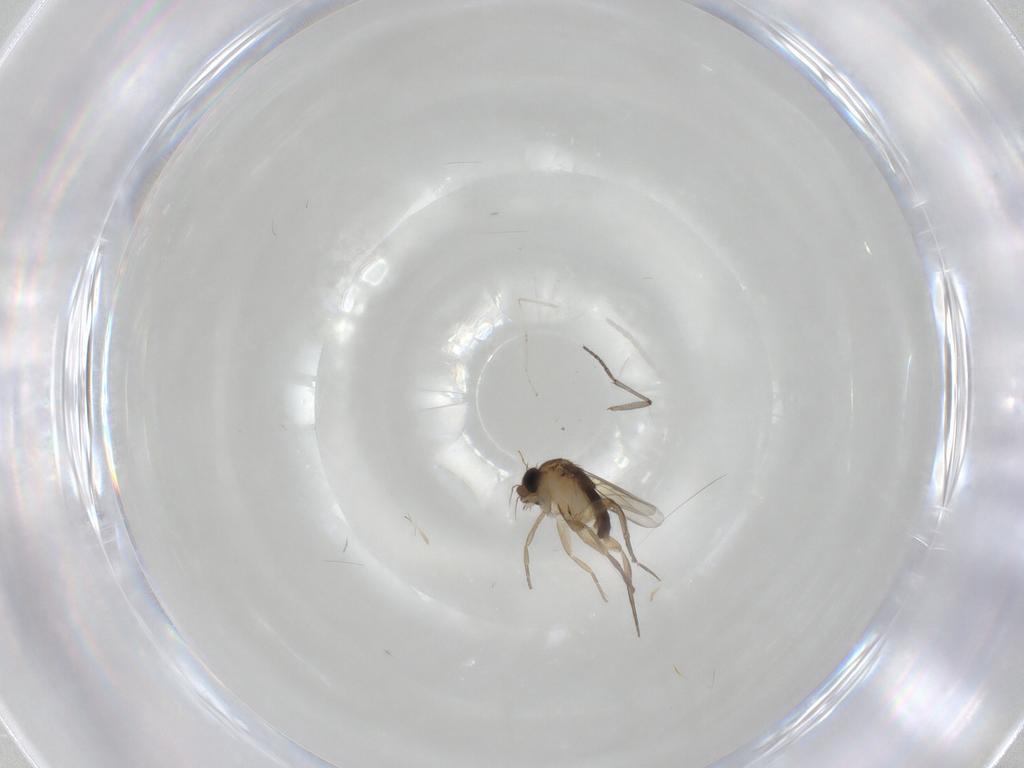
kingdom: Animalia
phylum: Arthropoda
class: Insecta
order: Diptera
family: Phoridae
